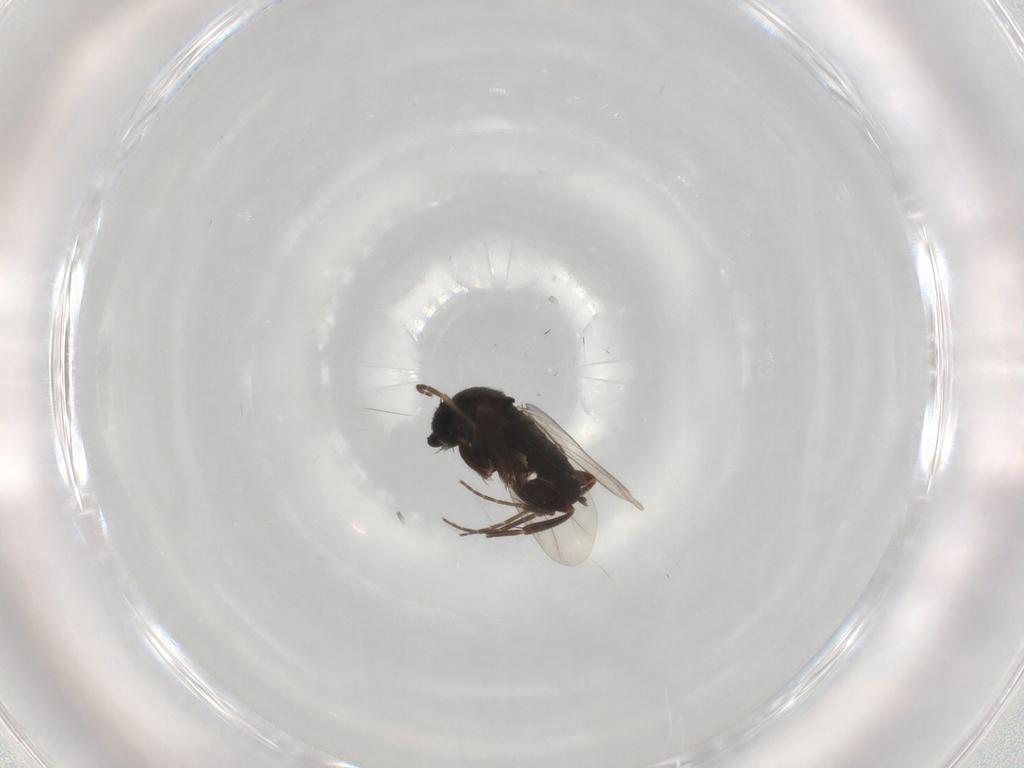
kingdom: Animalia
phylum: Arthropoda
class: Insecta
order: Diptera
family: Phoridae
